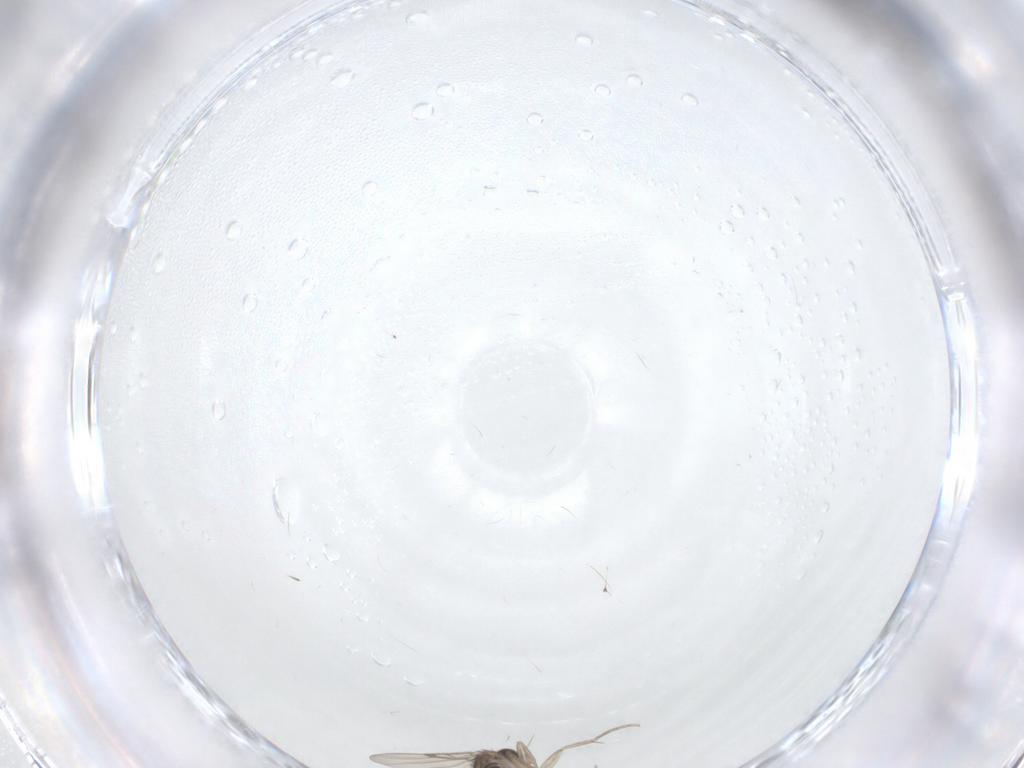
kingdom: Animalia
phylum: Arthropoda
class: Insecta
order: Diptera
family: Phoridae
